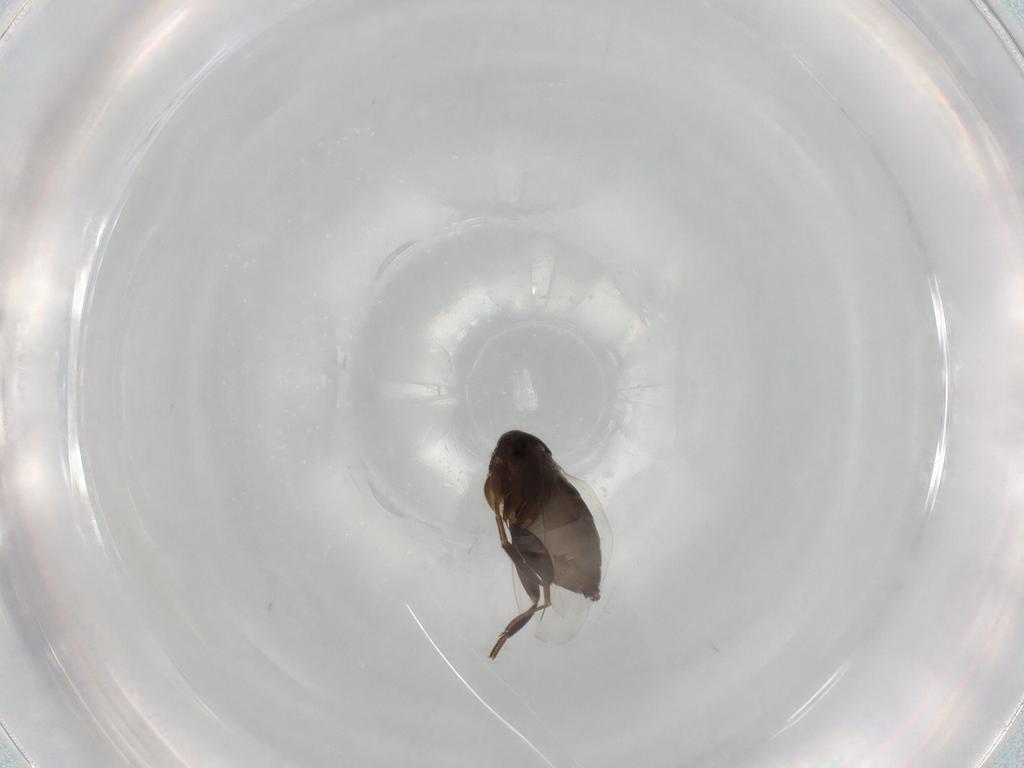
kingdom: Animalia
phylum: Arthropoda
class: Insecta
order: Diptera
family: Phoridae
